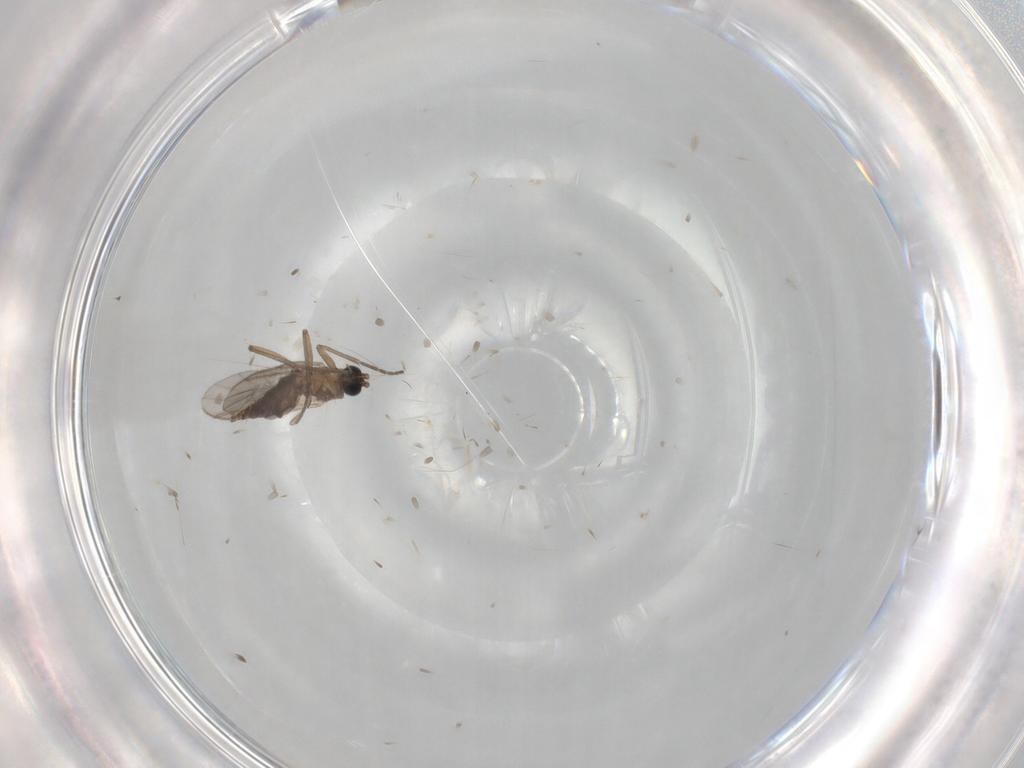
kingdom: Animalia
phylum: Arthropoda
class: Insecta
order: Diptera
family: Sciaridae
